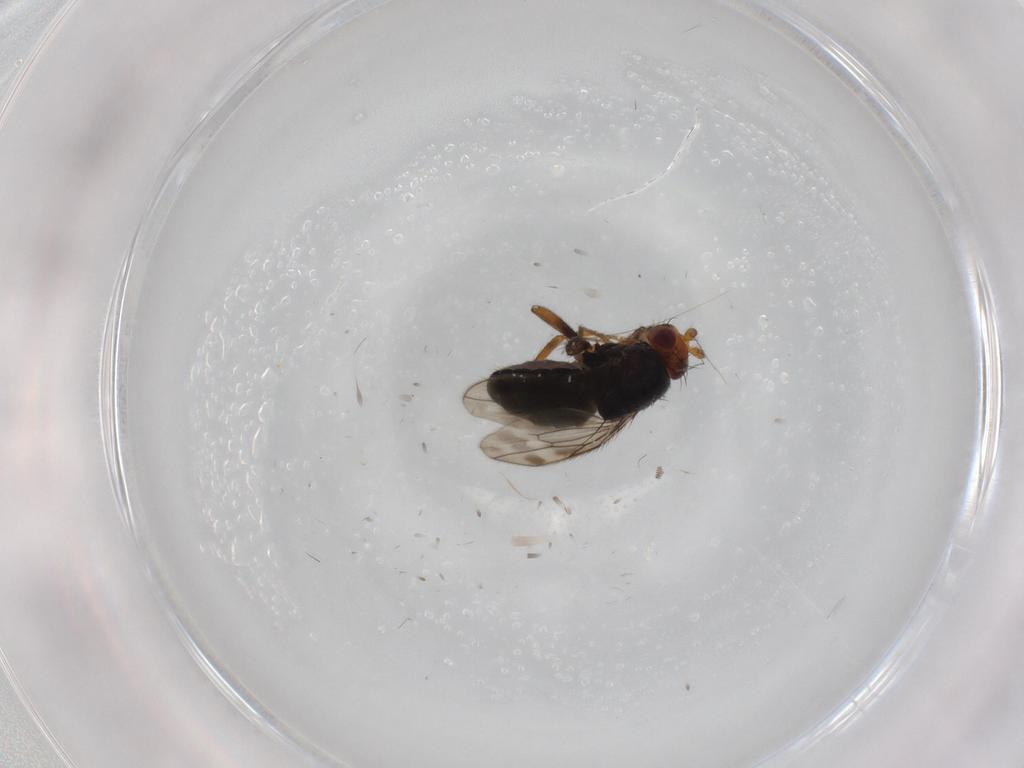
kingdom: Animalia
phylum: Arthropoda
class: Insecta
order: Diptera
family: Sphaeroceridae
